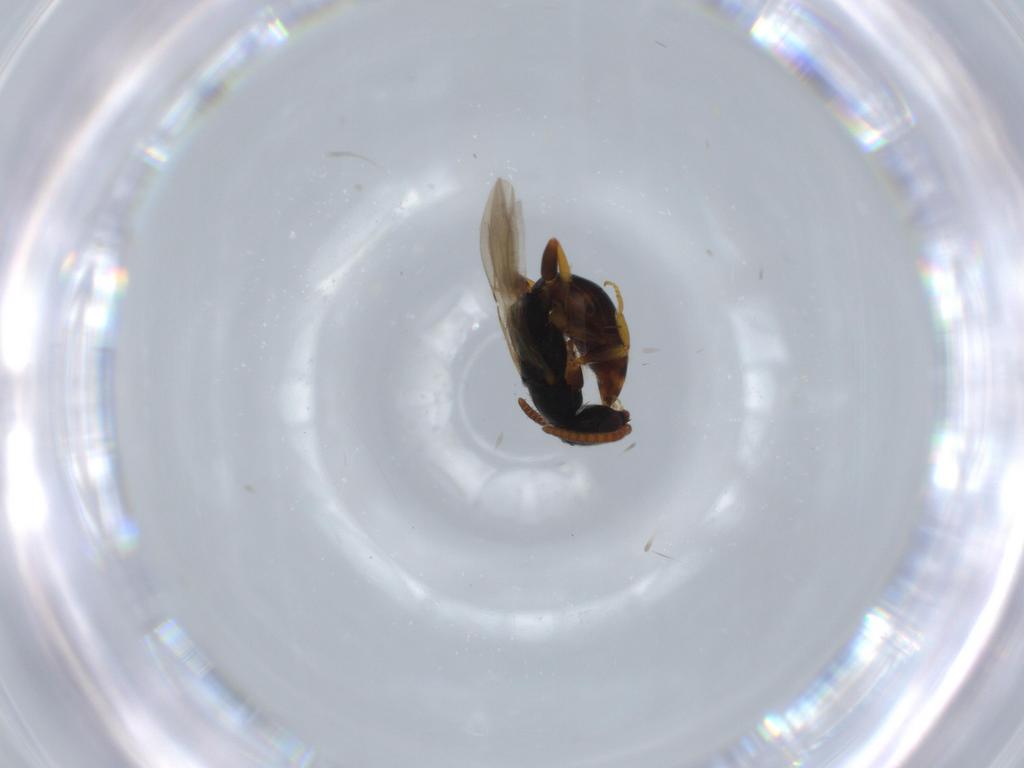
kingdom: Animalia
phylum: Arthropoda
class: Insecta
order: Hymenoptera
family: Bethylidae
